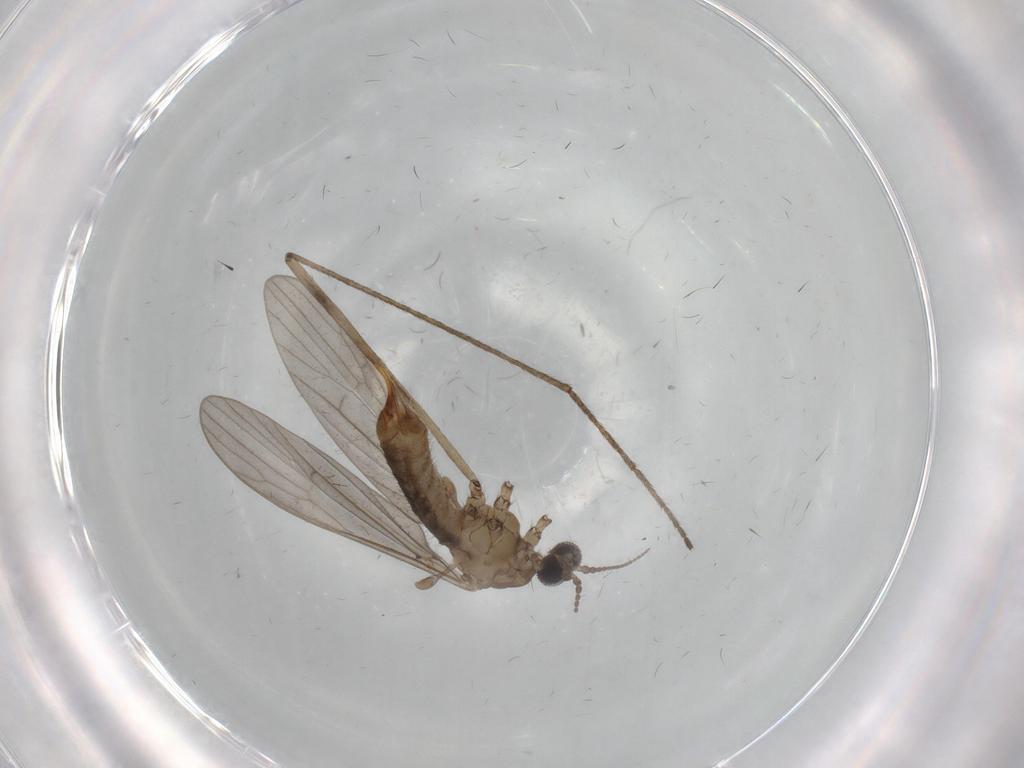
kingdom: Animalia
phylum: Arthropoda
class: Insecta
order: Diptera
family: Limoniidae
